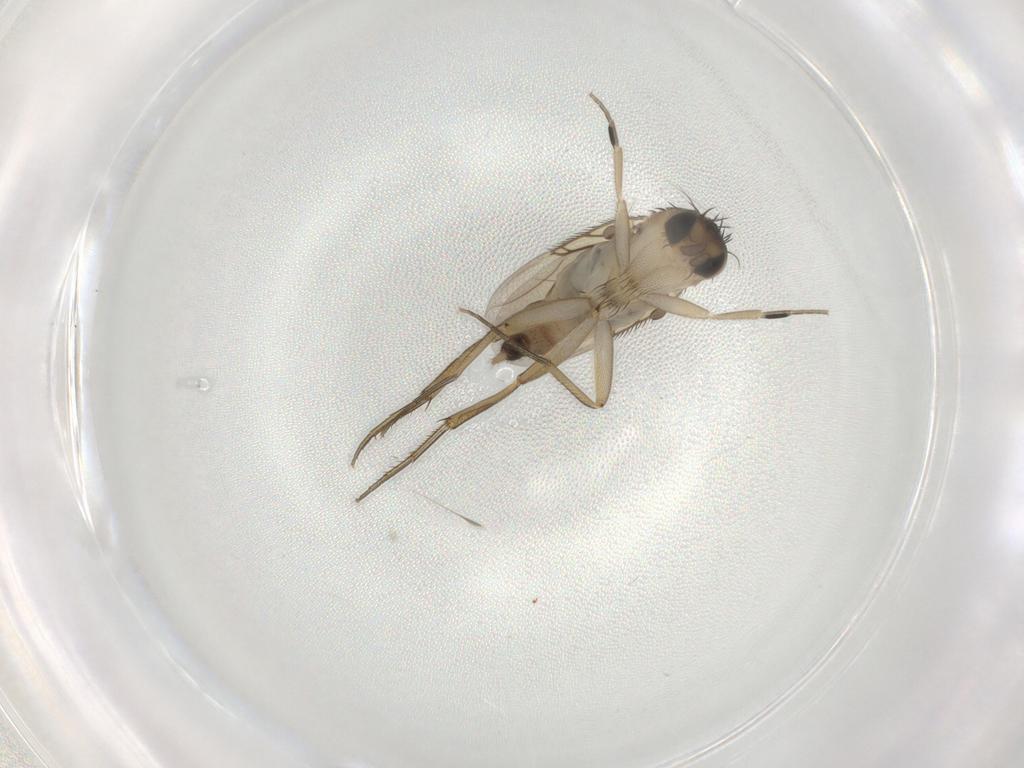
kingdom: Animalia
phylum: Arthropoda
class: Insecta
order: Diptera
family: Phoridae
